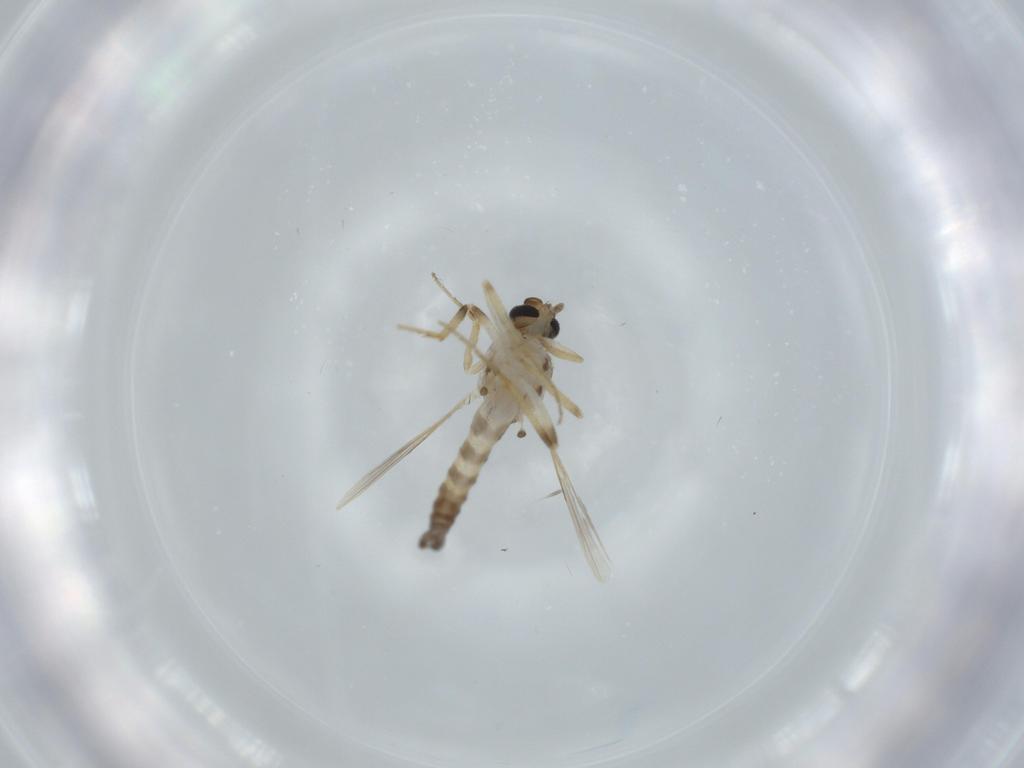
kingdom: Animalia
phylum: Arthropoda
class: Insecta
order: Diptera
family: Ceratopogonidae
